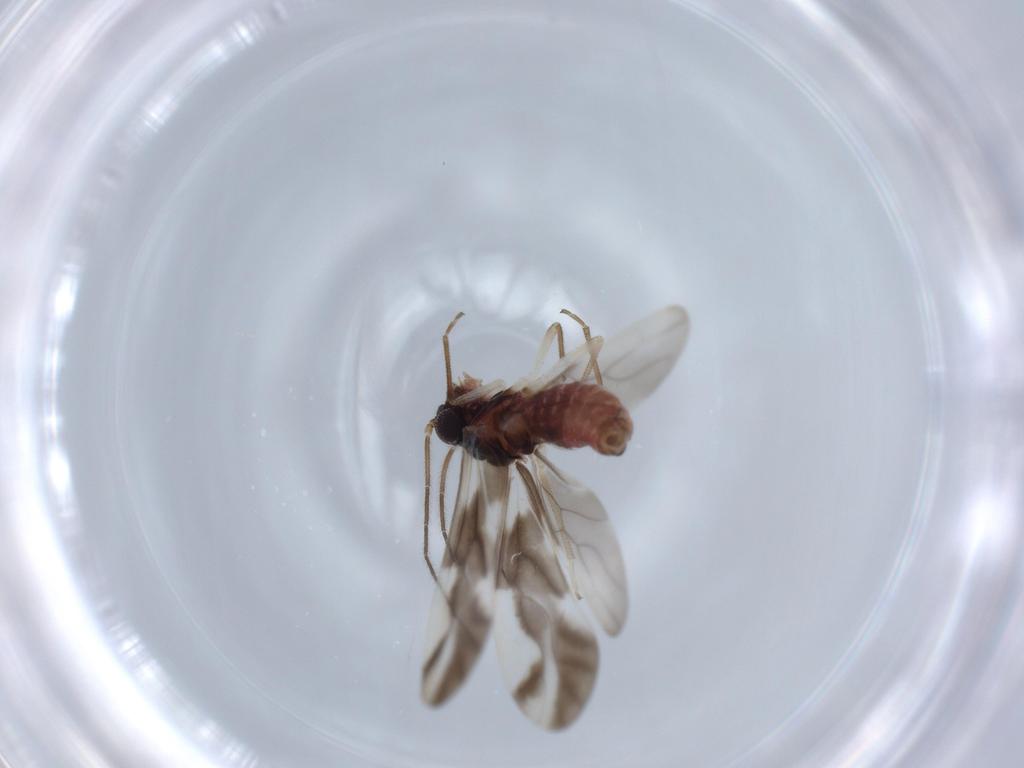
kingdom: Animalia
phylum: Arthropoda
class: Insecta
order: Psocodea
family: Caeciliusidae
